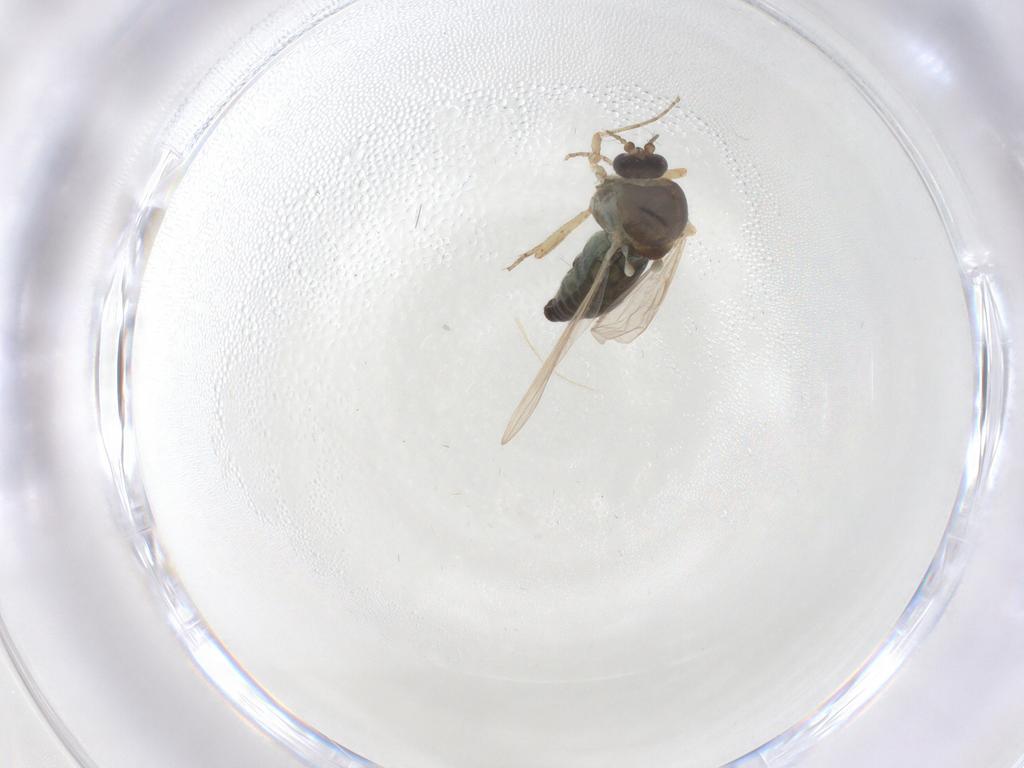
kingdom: Animalia
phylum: Arthropoda
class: Insecta
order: Diptera
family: Ceratopogonidae
